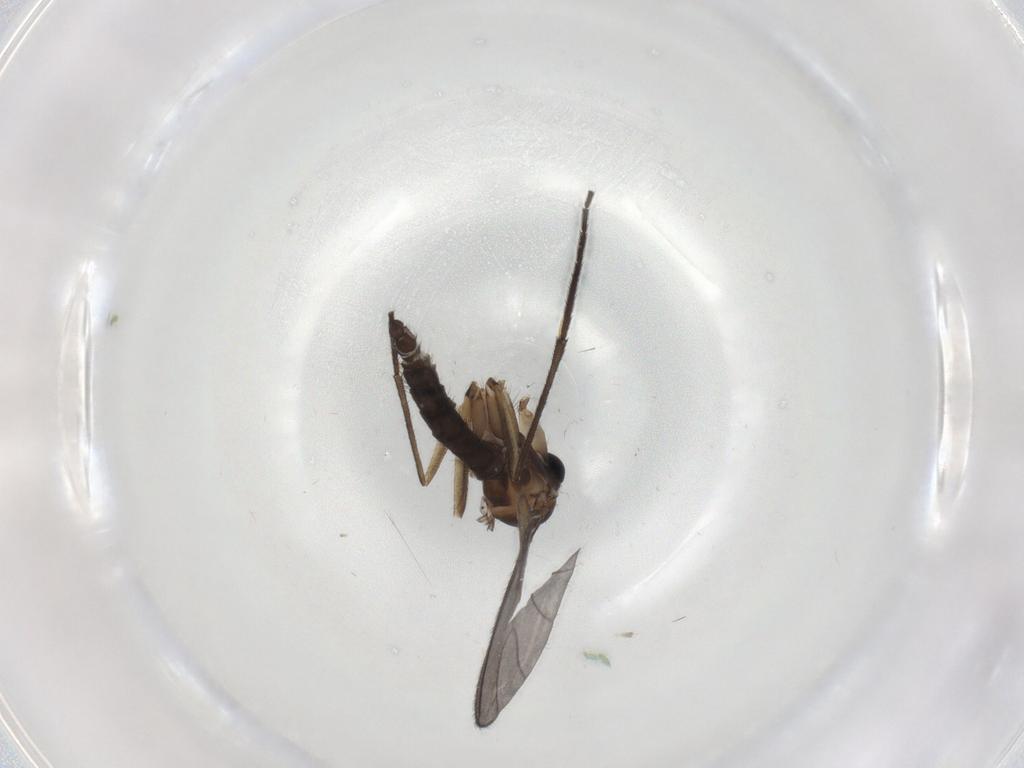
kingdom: Animalia
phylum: Arthropoda
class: Insecta
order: Diptera
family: Sciaridae
